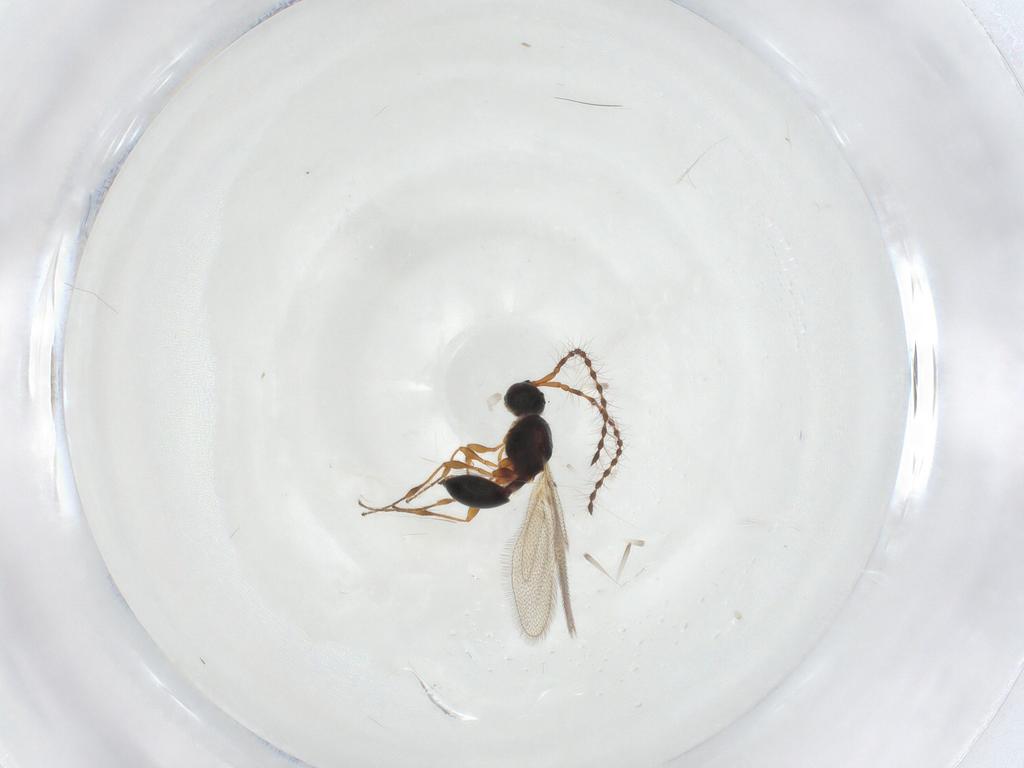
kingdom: Animalia
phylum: Arthropoda
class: Insecta
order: Hymenoptera
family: Diapriidae
